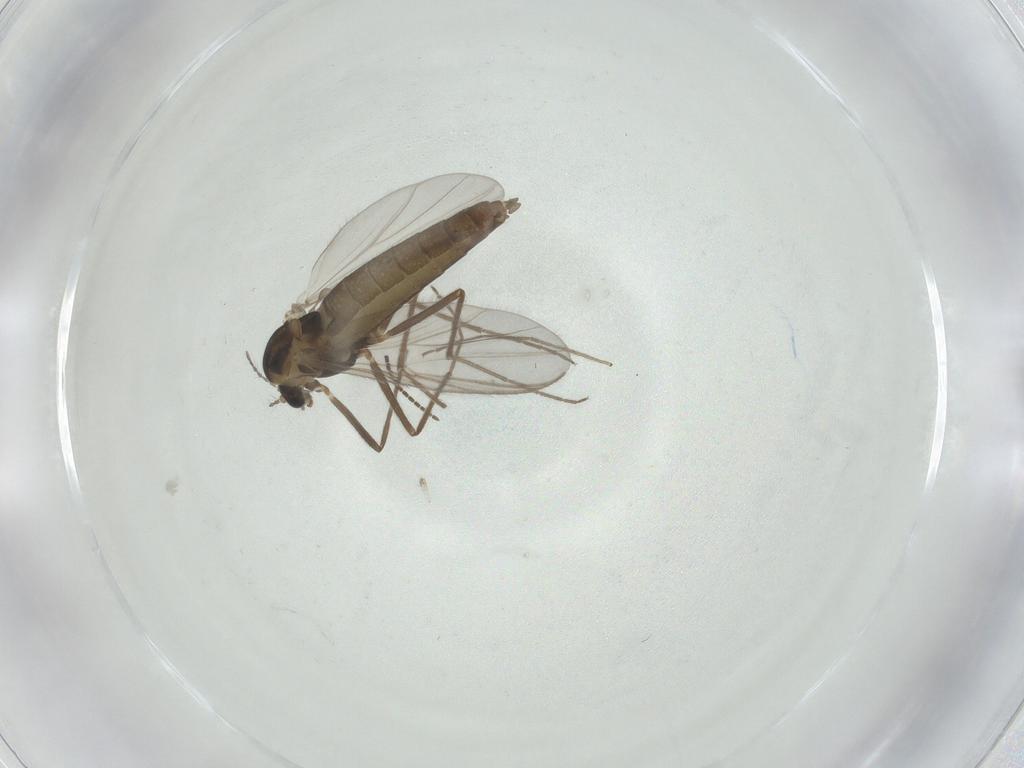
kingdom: Animalia
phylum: Arthropoda
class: Insecta
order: Diptera
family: Chironomidae
